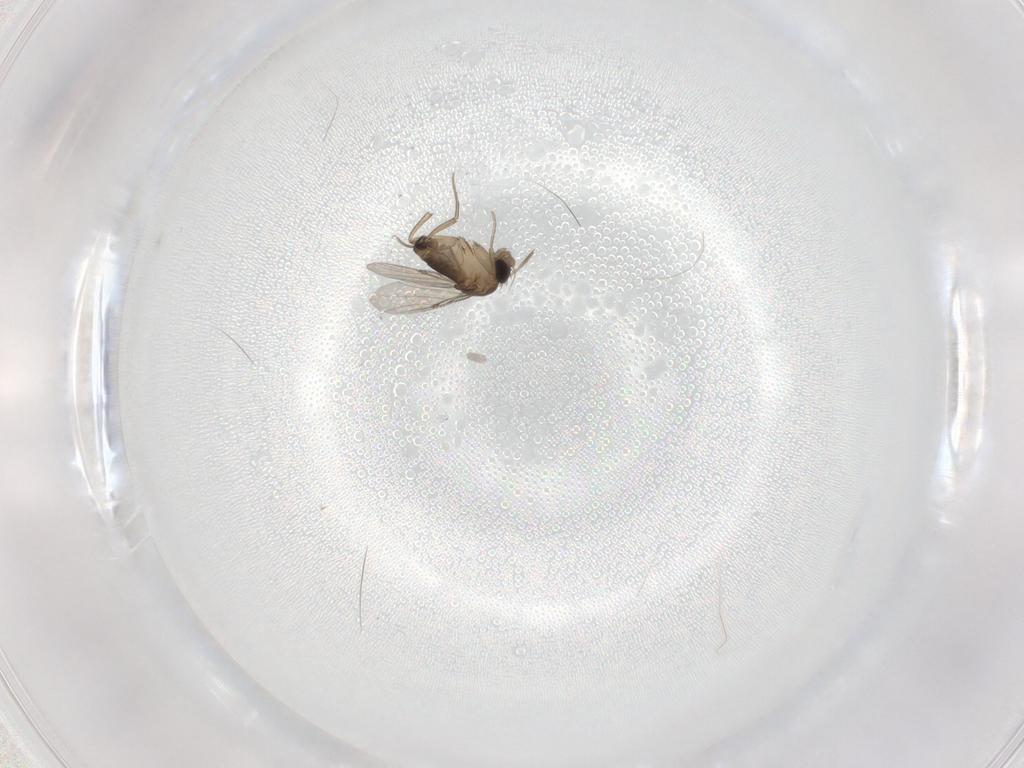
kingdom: Animalia
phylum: Arthropoda
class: Insecta
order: Diptera
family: Phoridae
